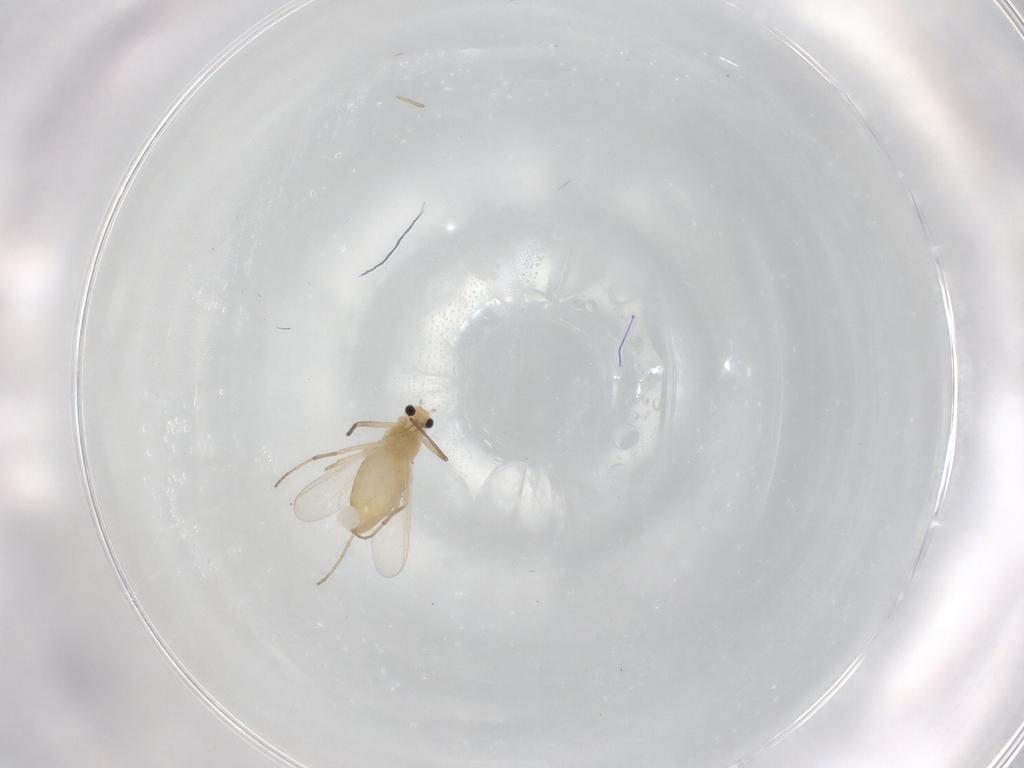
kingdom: Animalia
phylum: Arthropoda
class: Insecta
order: Diptera
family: Chironomidae
